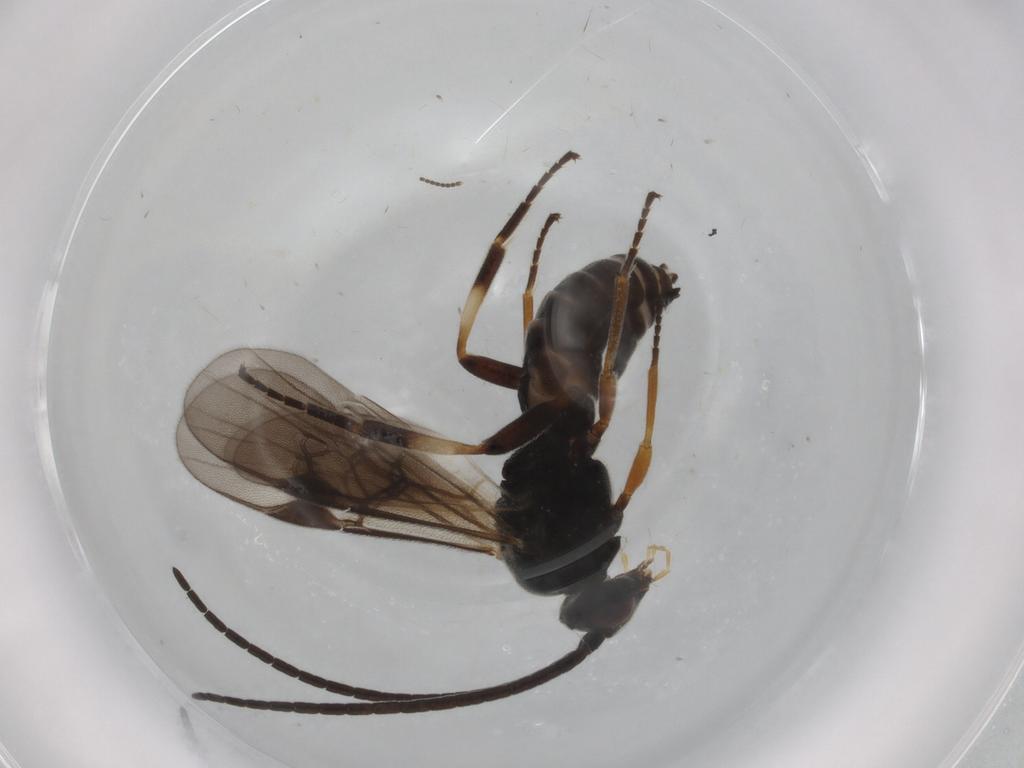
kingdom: Animalia
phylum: Arthropoda
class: Insecta
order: Hymenoptera
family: Braconidae
